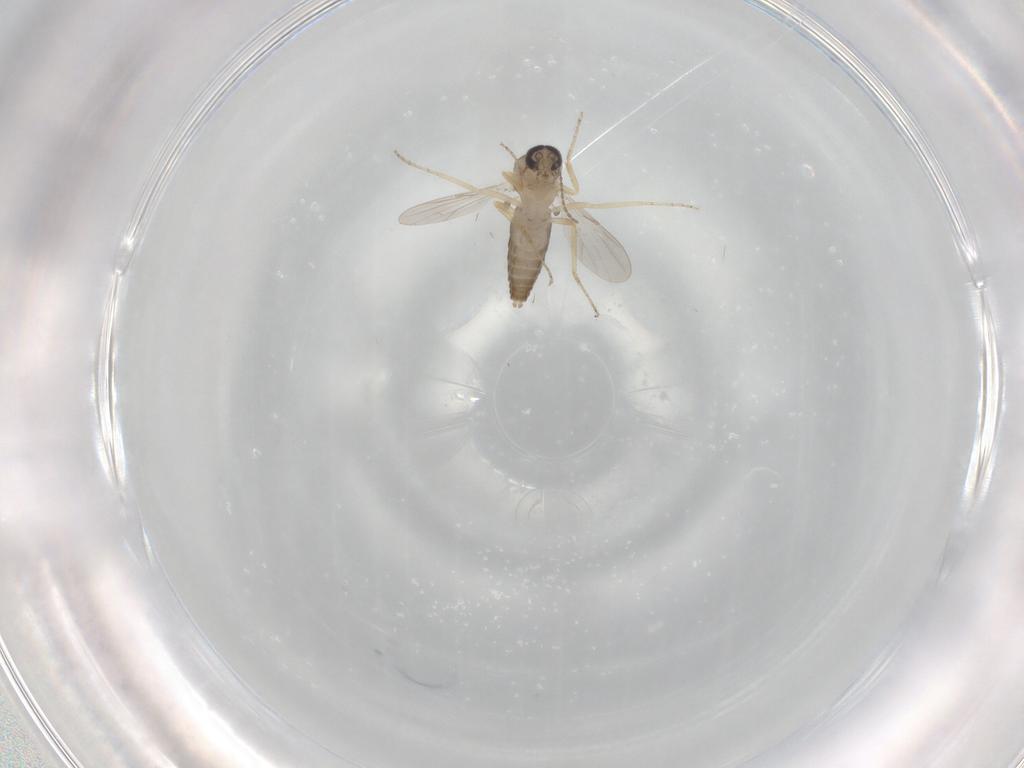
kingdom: Animalia
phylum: Arthropoda
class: Insecta
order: Diptera
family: Ceratopogonidae
